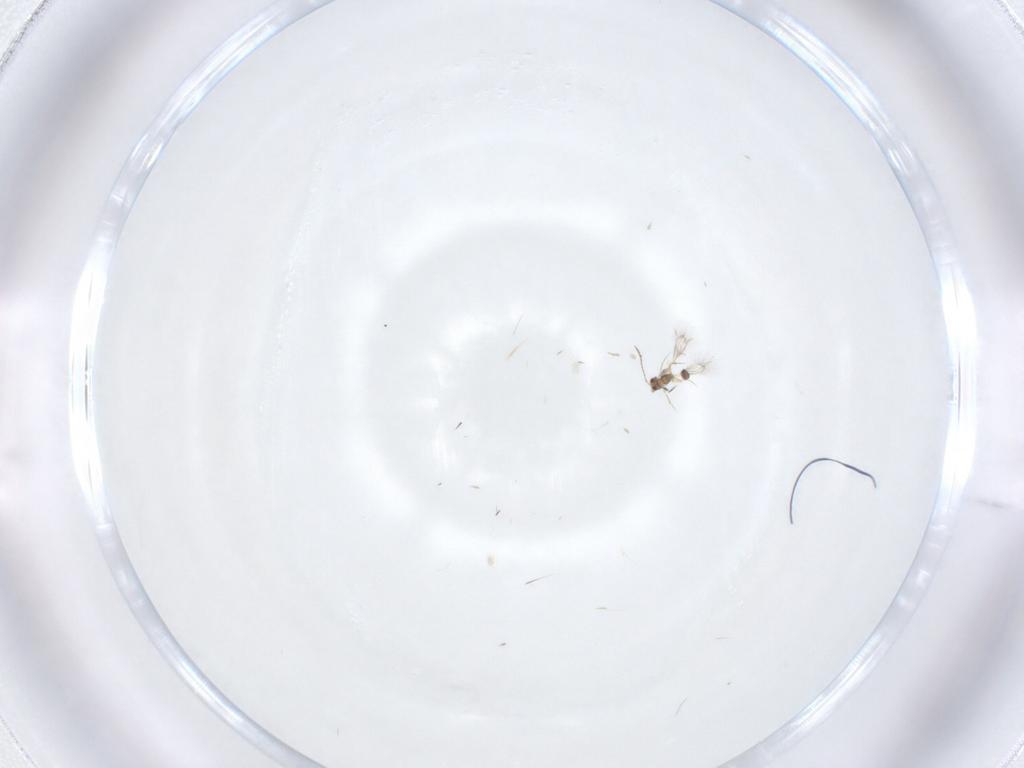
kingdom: Animalia
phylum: Arthropoda
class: Insecta
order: Hymenoptera
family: Mymarommatidae
